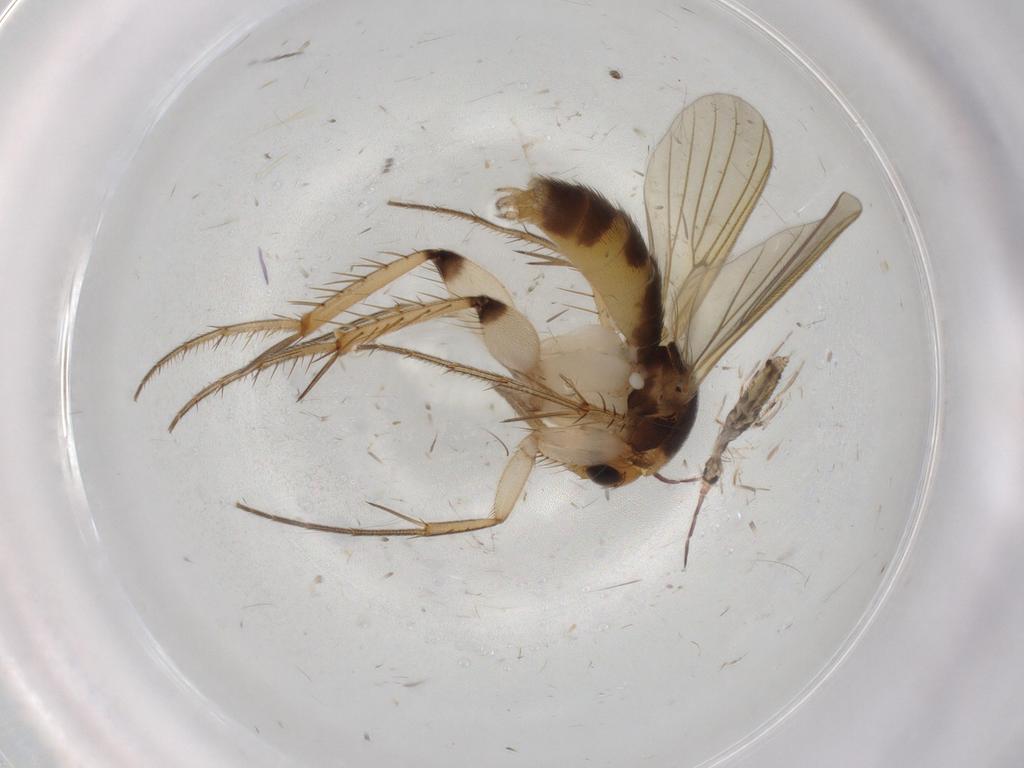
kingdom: Animalia
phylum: Arthropoda
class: Insecta
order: Diptera
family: Mycetophilidae
